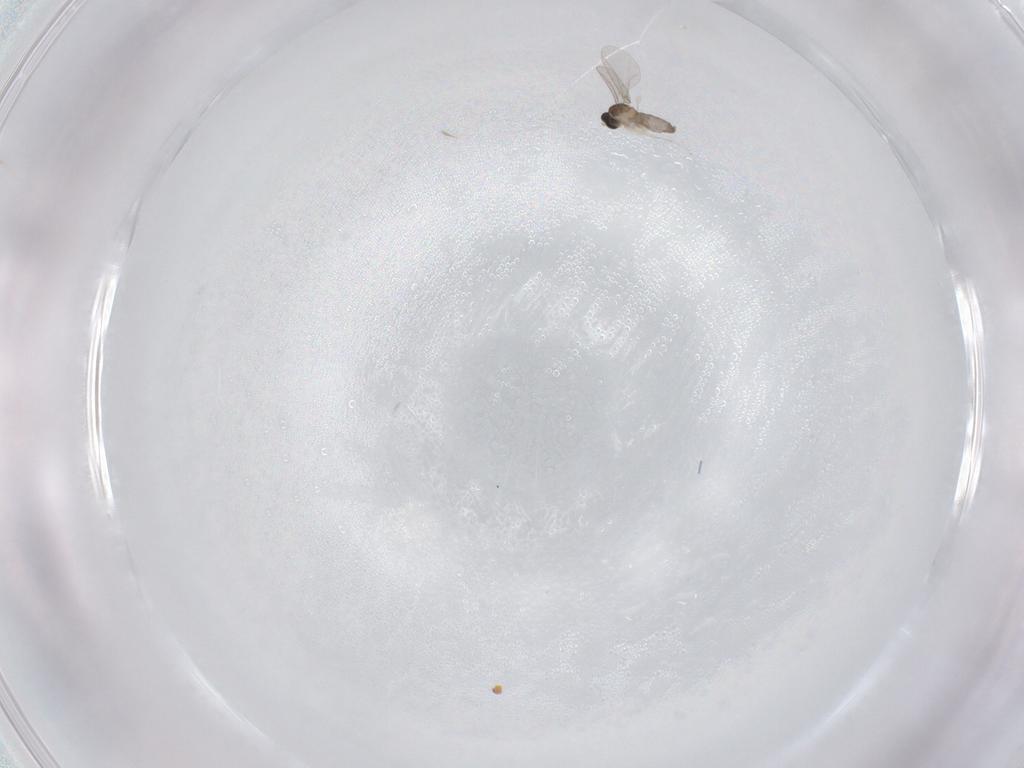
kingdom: Animalia
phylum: Arthropoda
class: Insecta
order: Diptera
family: Cecidomyiidae
